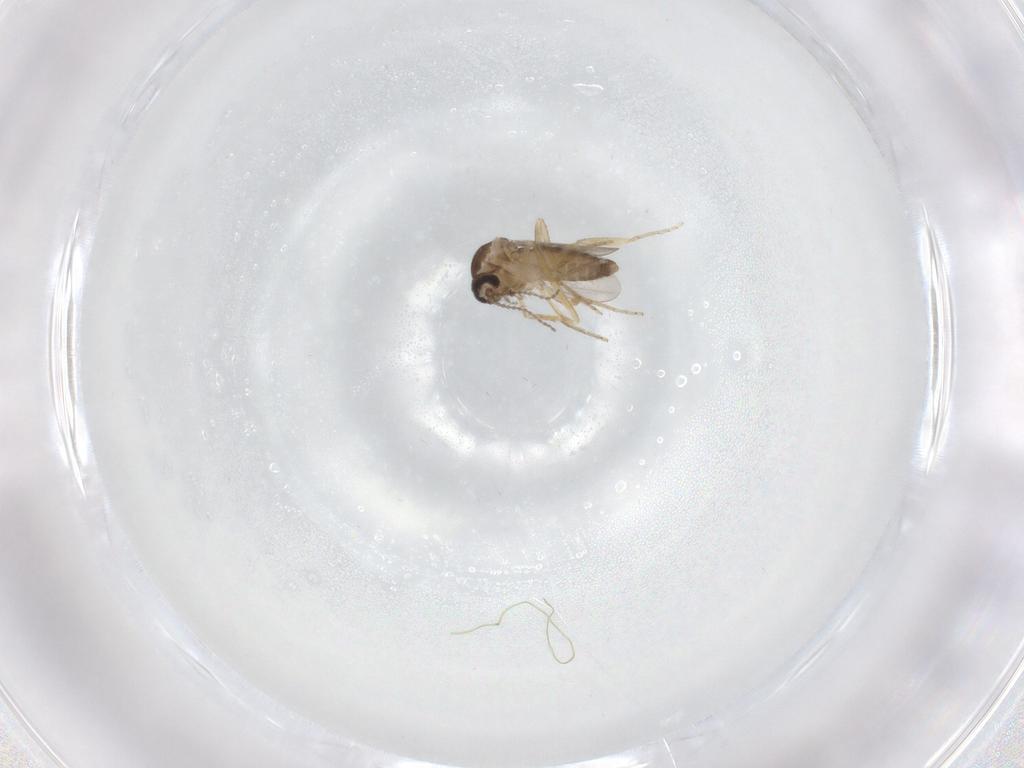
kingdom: Animalia
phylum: Arthropoda
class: Insecta
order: Diptera
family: Ceratopogonidae
